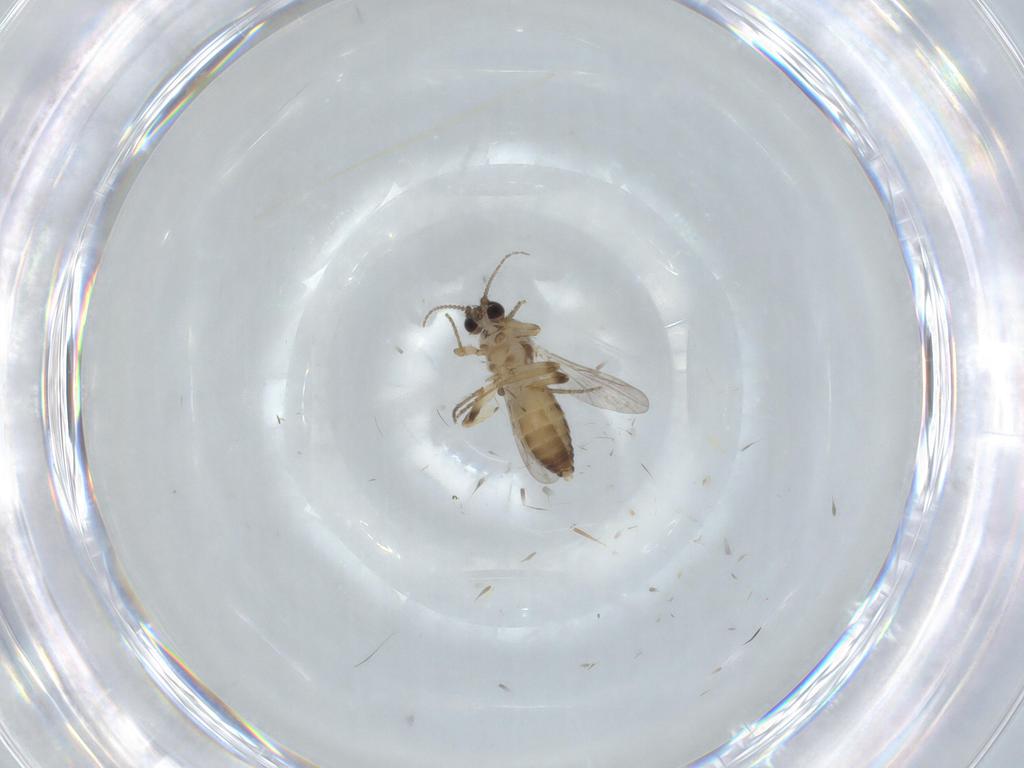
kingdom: Animalia
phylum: Arthropoda
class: Insecta
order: Diptera
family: Ceratopogonidae
